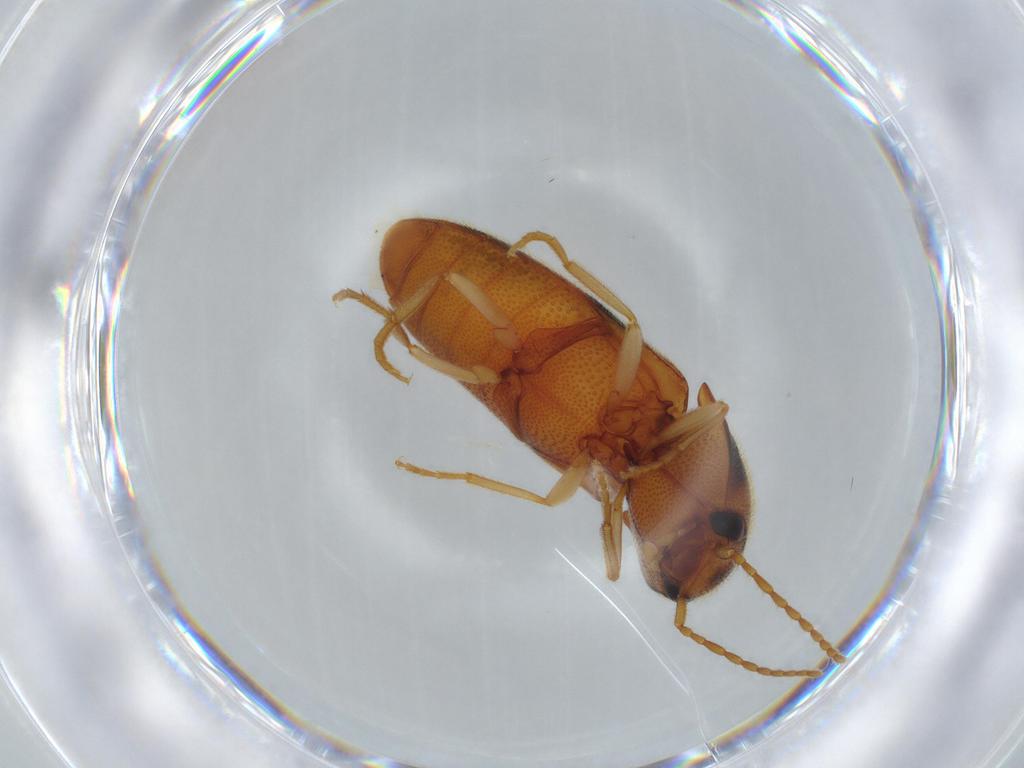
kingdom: Animalia
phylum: Arthropoda
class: Insecta
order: Coleoptera
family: Elateridae
